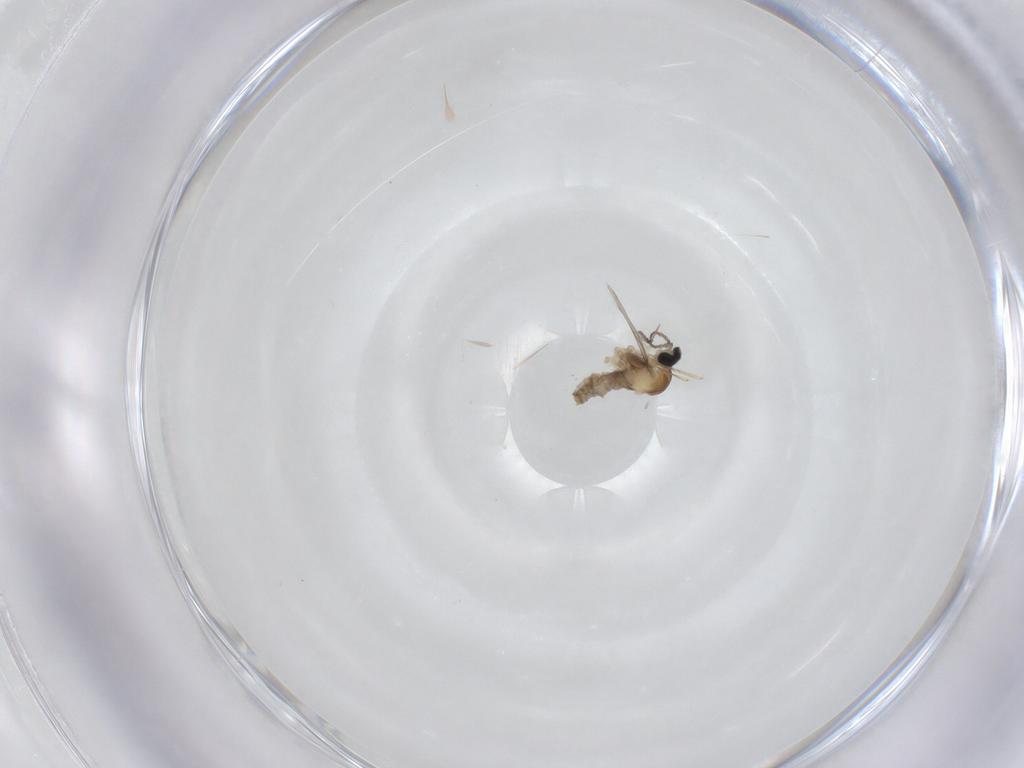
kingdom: Animalia
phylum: Arthropoda
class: Insecta
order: Diptera
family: Cecidomyiidae
